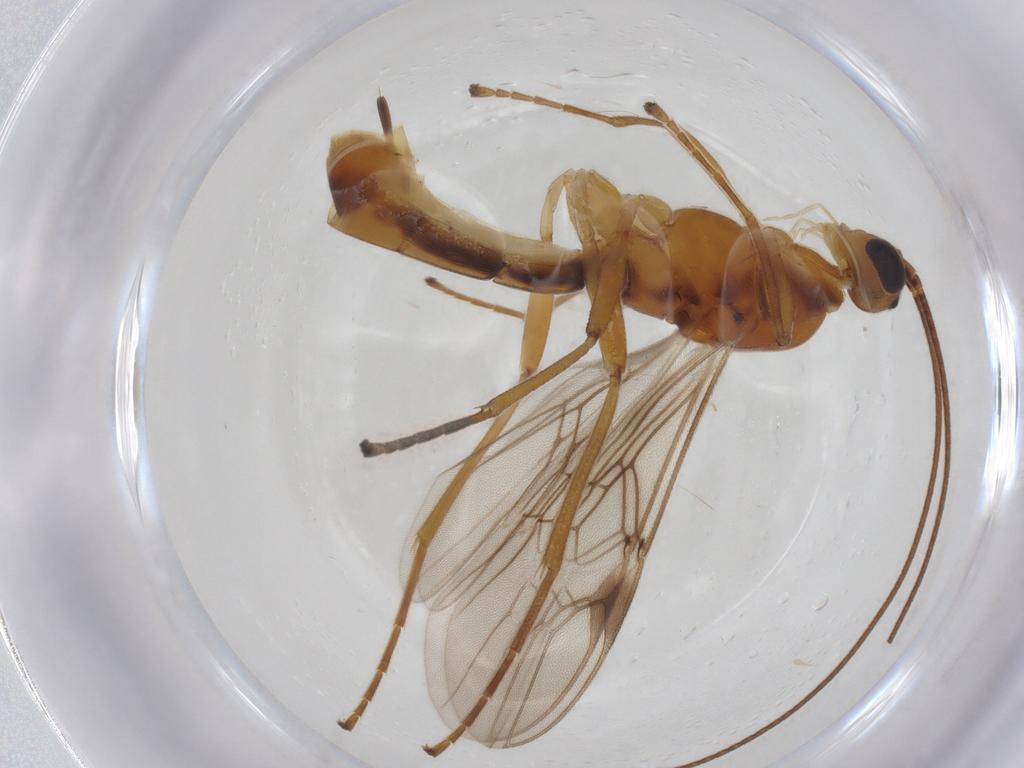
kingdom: Animalia
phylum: Arthropoda
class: Insecta
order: Hymenoptera
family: Braconidae
